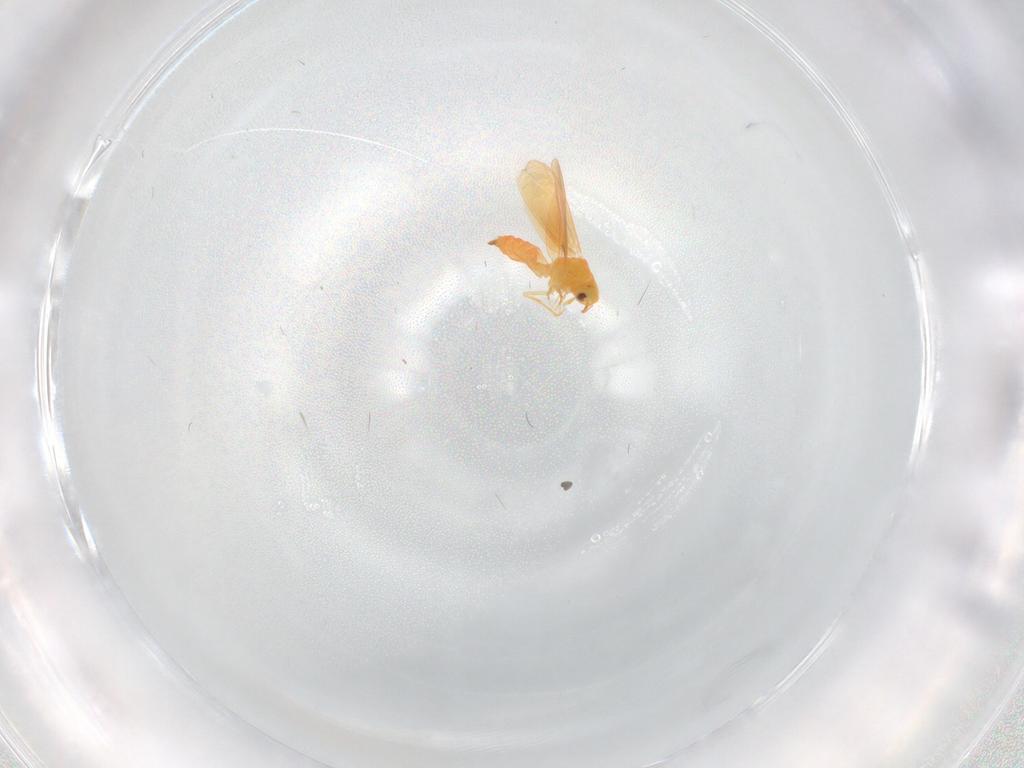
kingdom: Animalia
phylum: Arthropoda
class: Insecta
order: Hemiptera
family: Aleyrodidae
